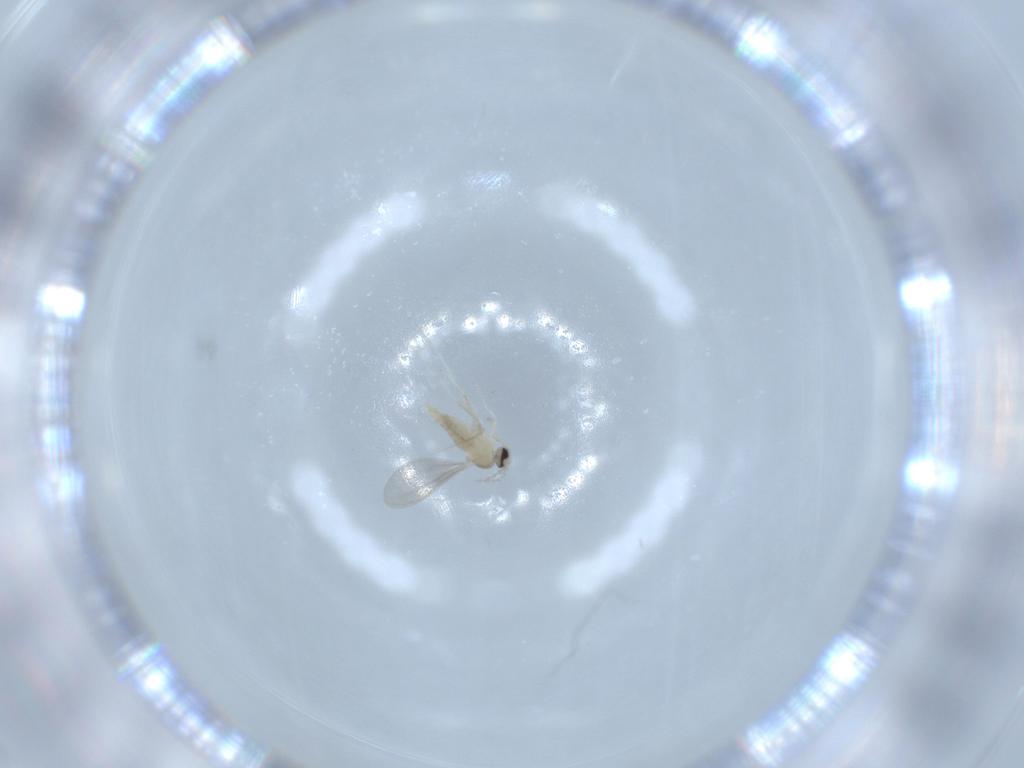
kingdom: Animalia
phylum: Arthropoda
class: Insecta
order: Diptera
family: Cecidomyiidae
